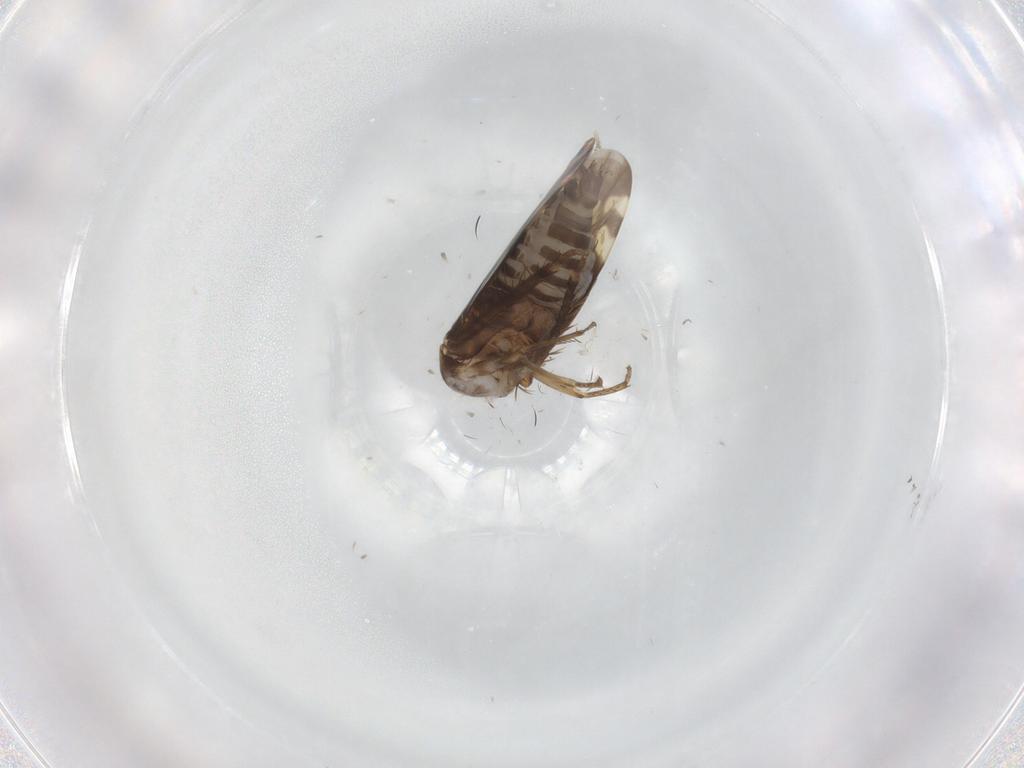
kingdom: Animalia
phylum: Arthropoda
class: Insecta
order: Hemiptera
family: Cicadellidae
